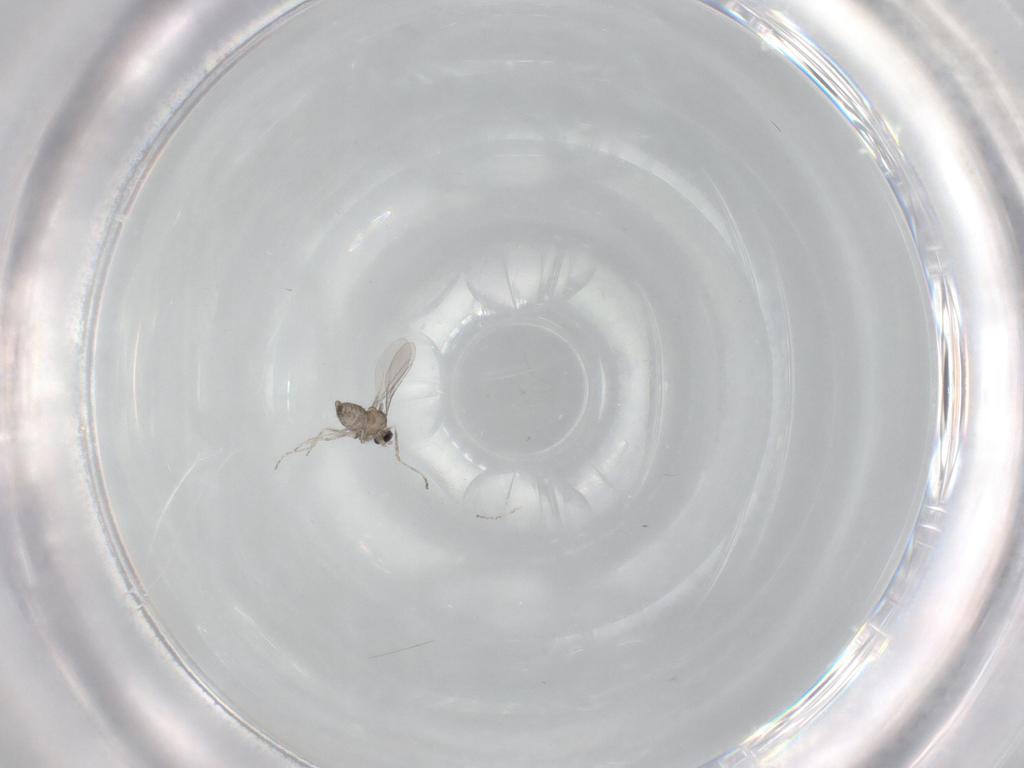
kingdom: Animalia
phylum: Arthropoda
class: Insecta
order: Diptera
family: Cecidomyiidae
